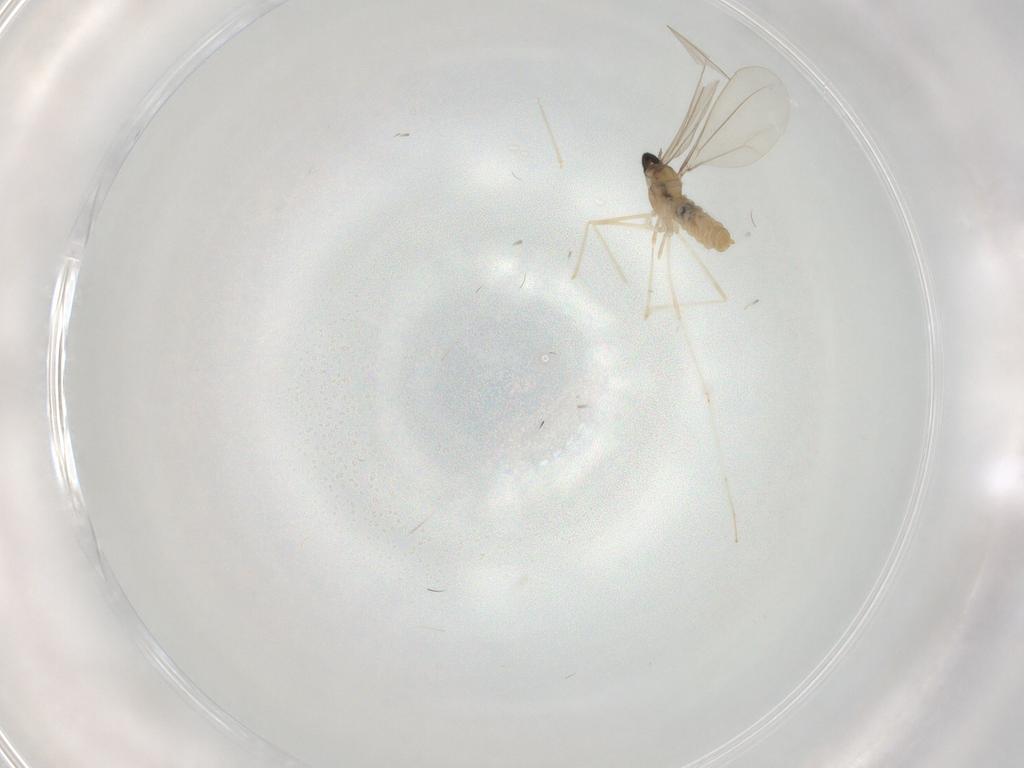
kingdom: Animalia
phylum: Arthropoda
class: Insecta
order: Diptera
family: Cecidomyiidae
